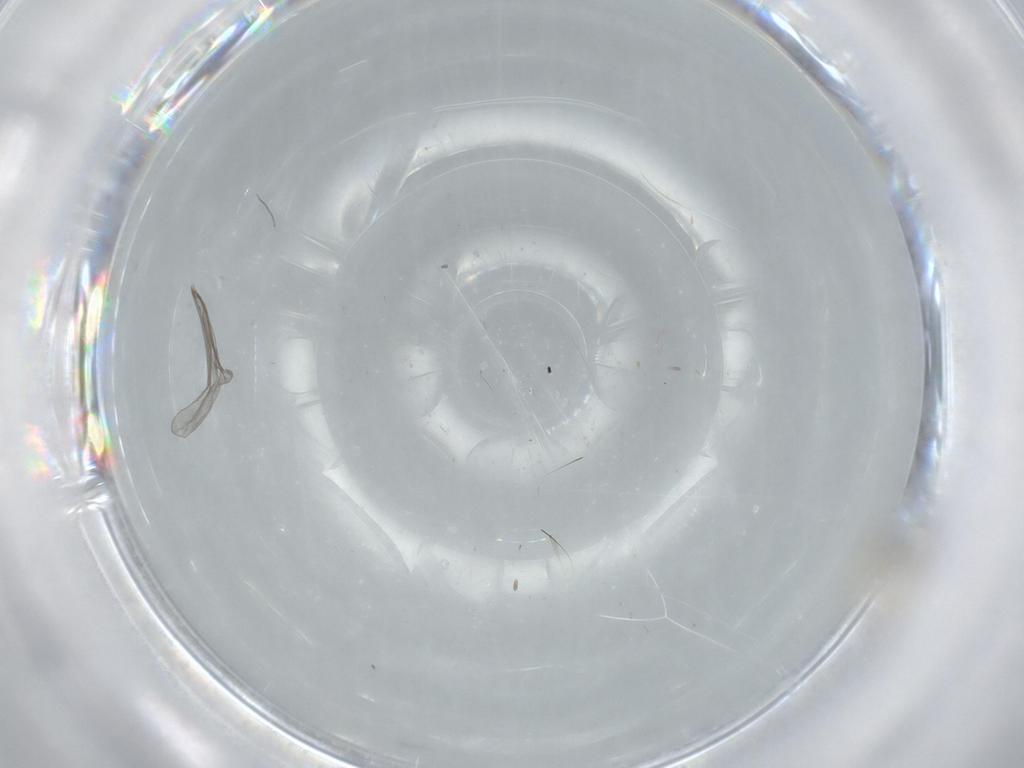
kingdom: Animalia
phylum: Arthropoda
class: Insecta
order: Diptera
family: Cecidomyiidae
